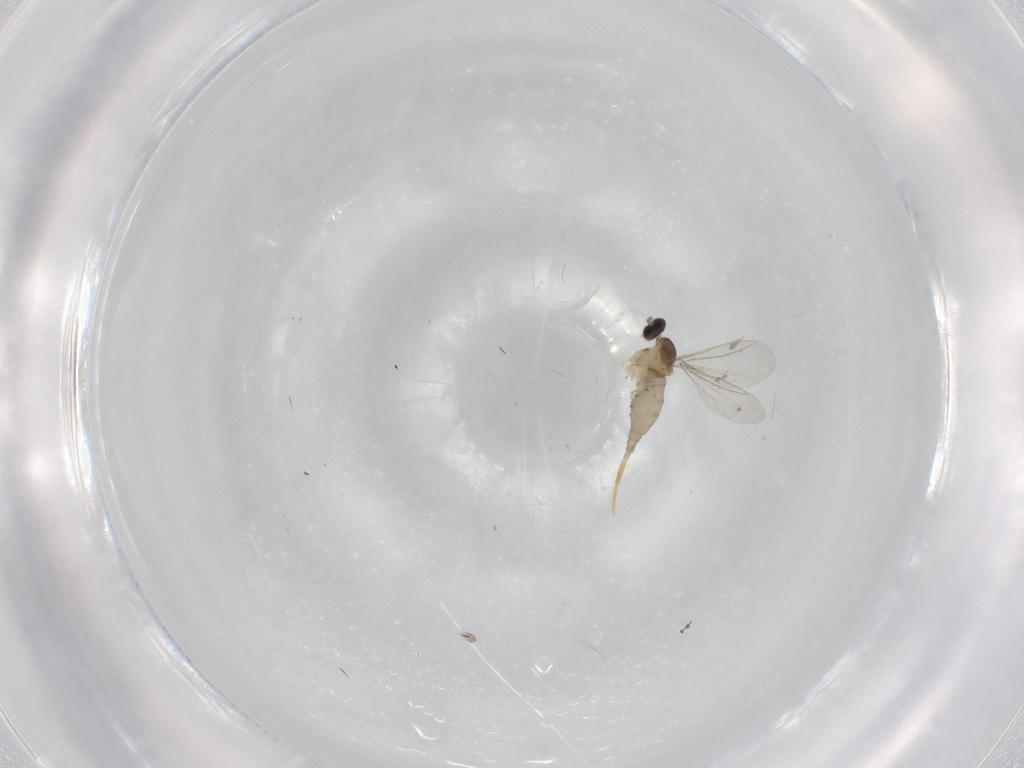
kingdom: Animalia
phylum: Arthropoda
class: Insecta
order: Diptera
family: Cecidomyiidae
